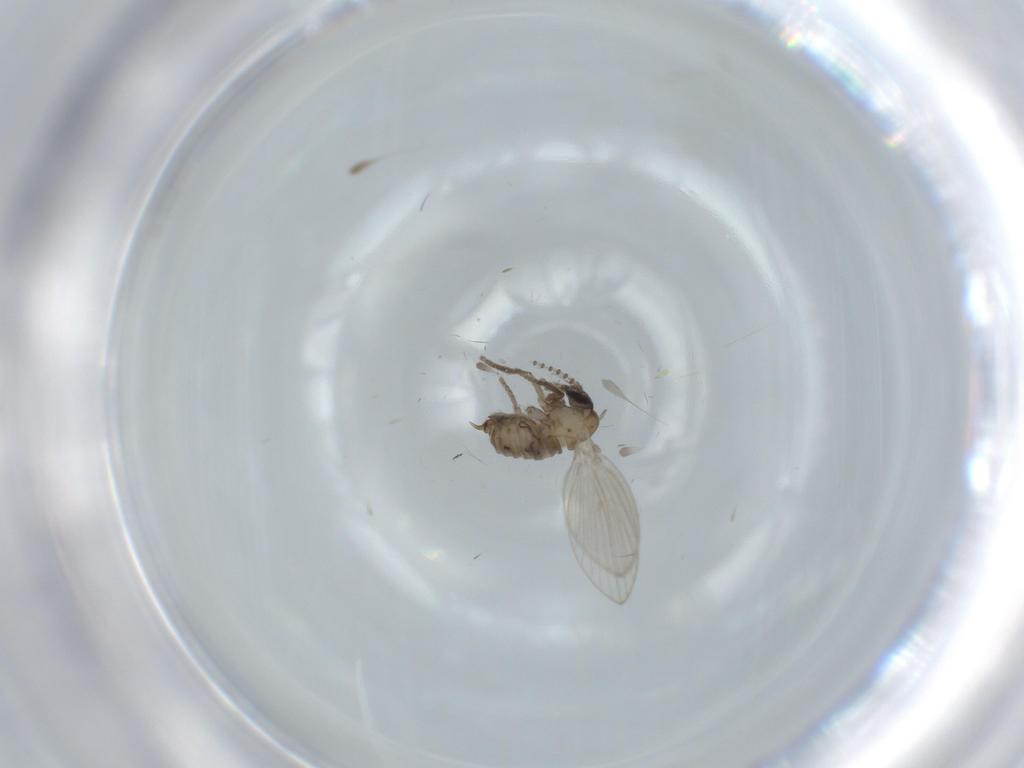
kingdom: Animalia
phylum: Arthropoda
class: Insecta
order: Diptera
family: Psychodidae
